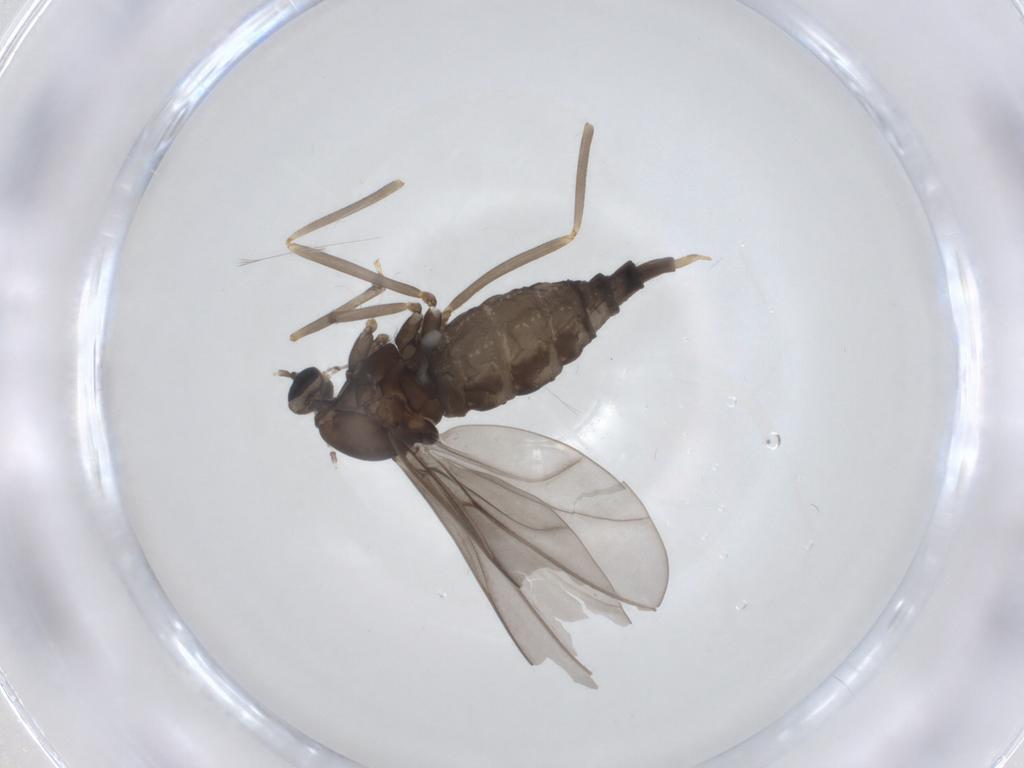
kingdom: Animalia
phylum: Arthropoda
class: Insecta
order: Diptera
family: Cecidomyiidae
